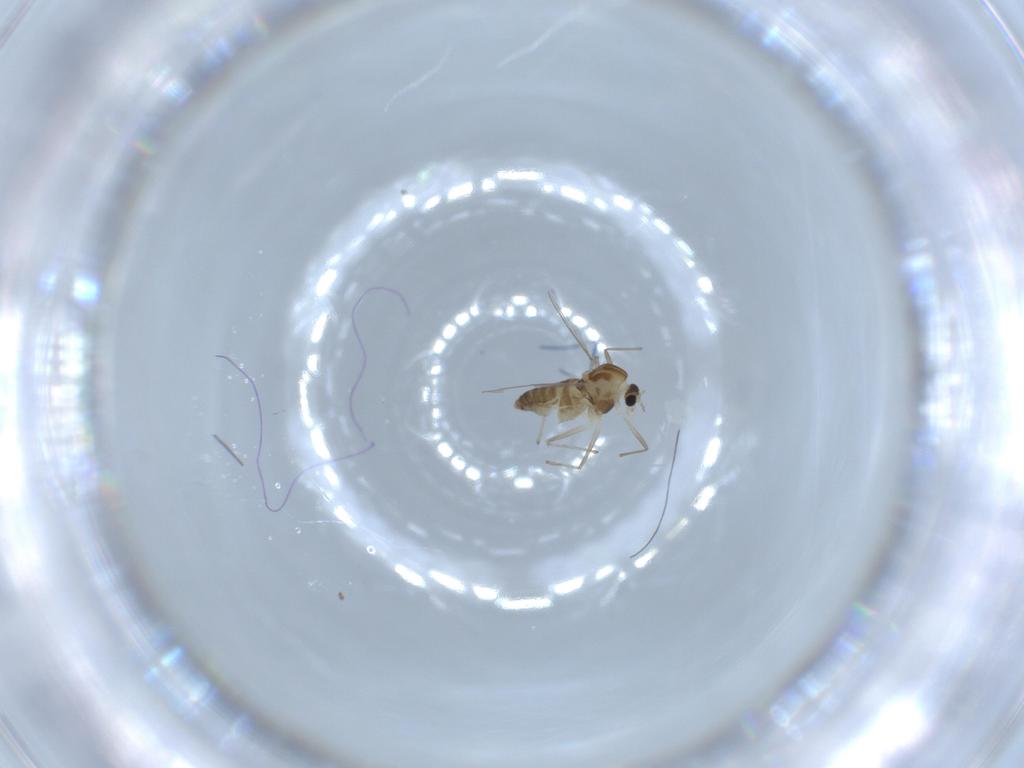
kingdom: Animalia
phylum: Arthropoda
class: Insecta
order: Diptera
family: Chironomidae
